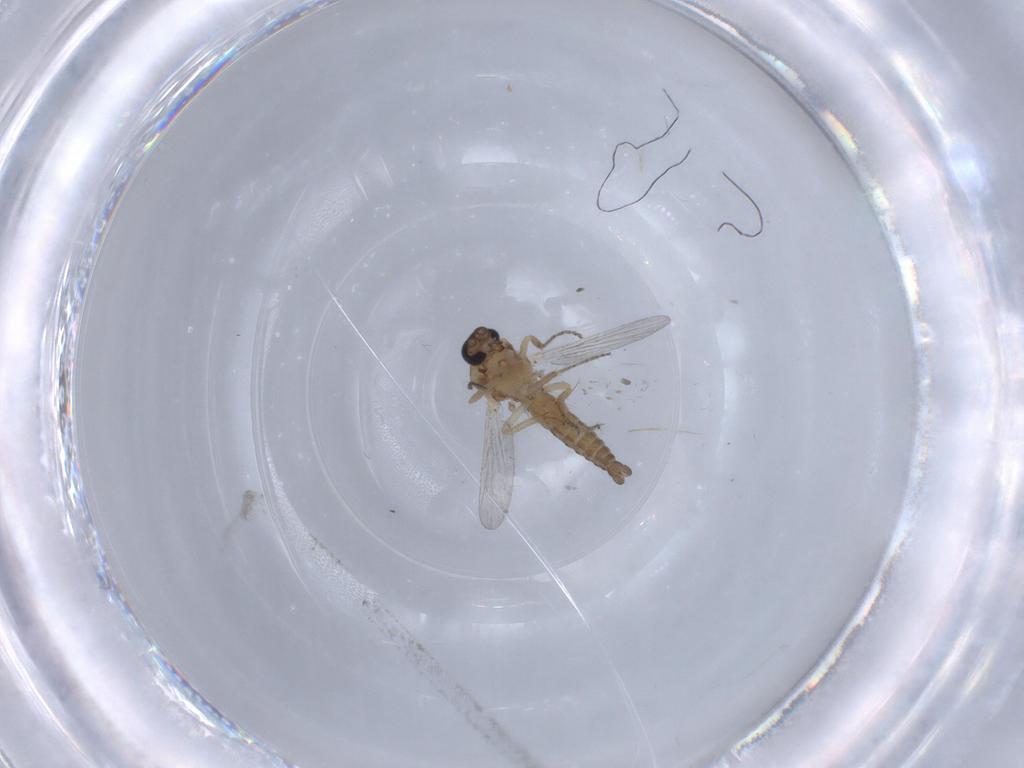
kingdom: Animalia
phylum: Arthropoda
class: Insecta
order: Diptera
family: Ceratopogonidae
